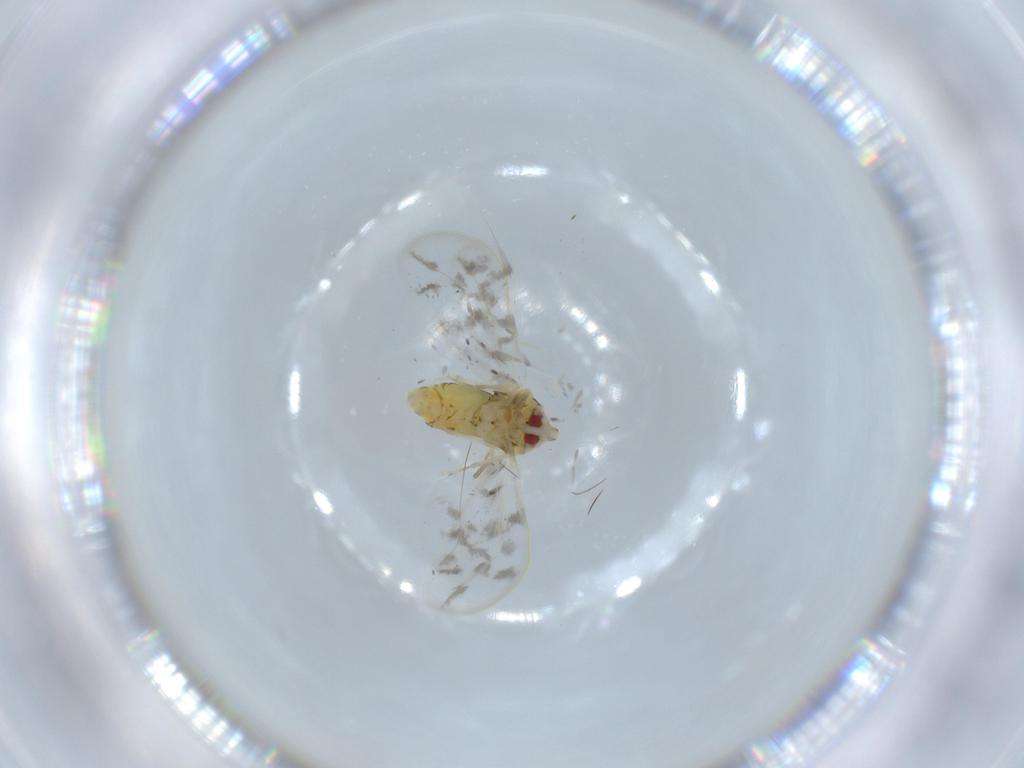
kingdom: Animalia
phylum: Arthropoda
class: Insecta
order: Hemiptera
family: Aleyrodidae
